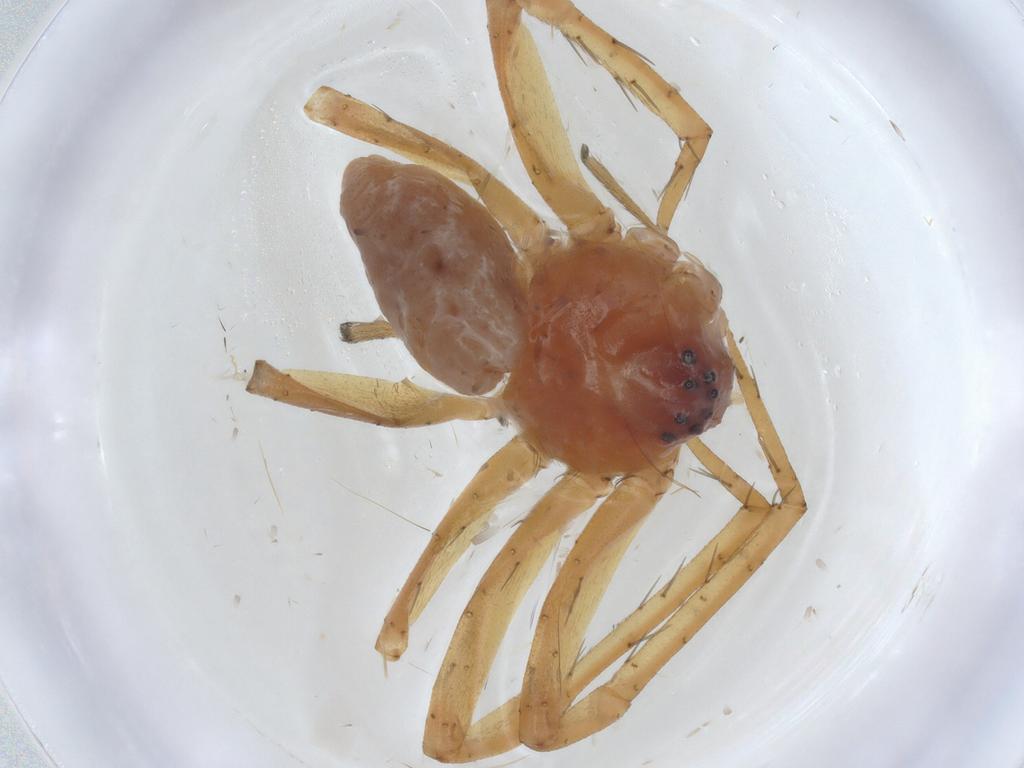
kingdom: Animalia
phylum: Arthropoda
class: Arachnida
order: Araneae
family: Philodromidae
